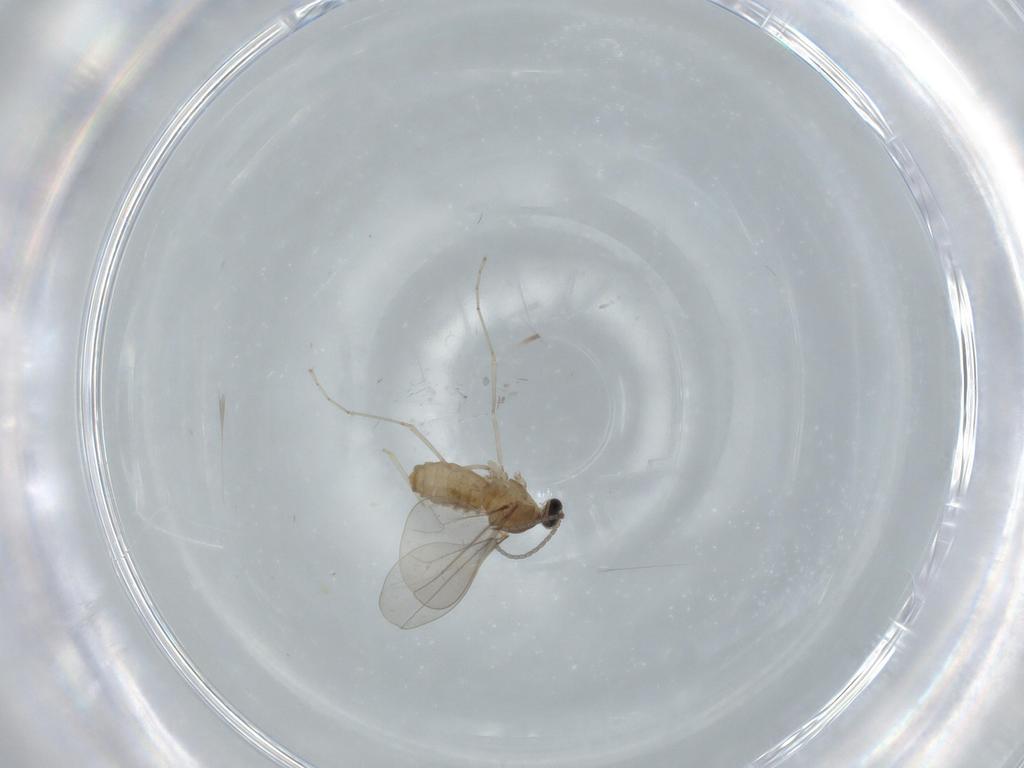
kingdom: Animalia
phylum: Arthropoda
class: Insecta
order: Diptera
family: Cecidomyiidae
